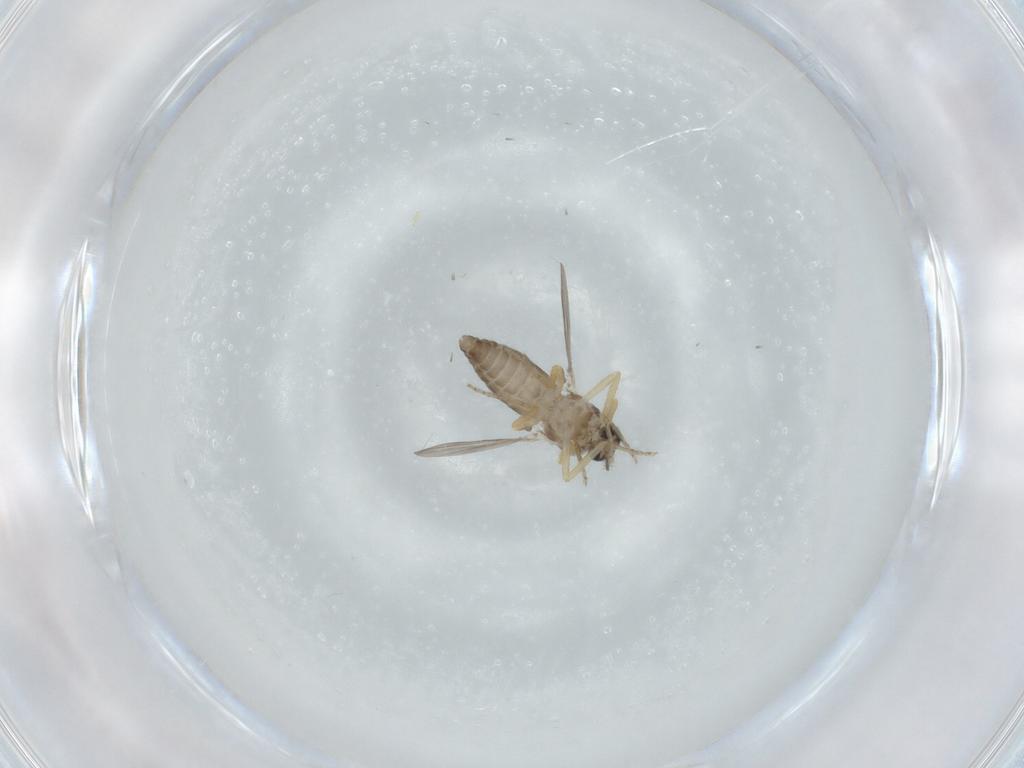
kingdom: Animalia
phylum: Arthropoda
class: Insecta
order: Diptera
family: Ceratopogonidae
